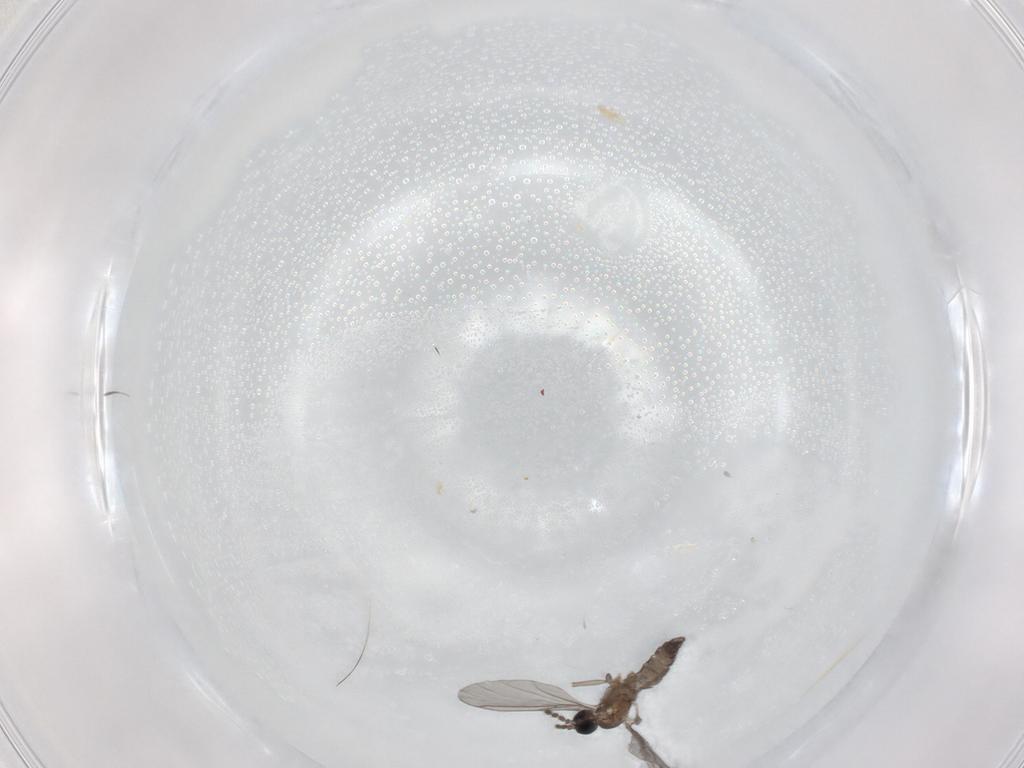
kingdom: Animalia
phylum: Arthropoda
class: Insecta
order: Diptera
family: Sciaridae
